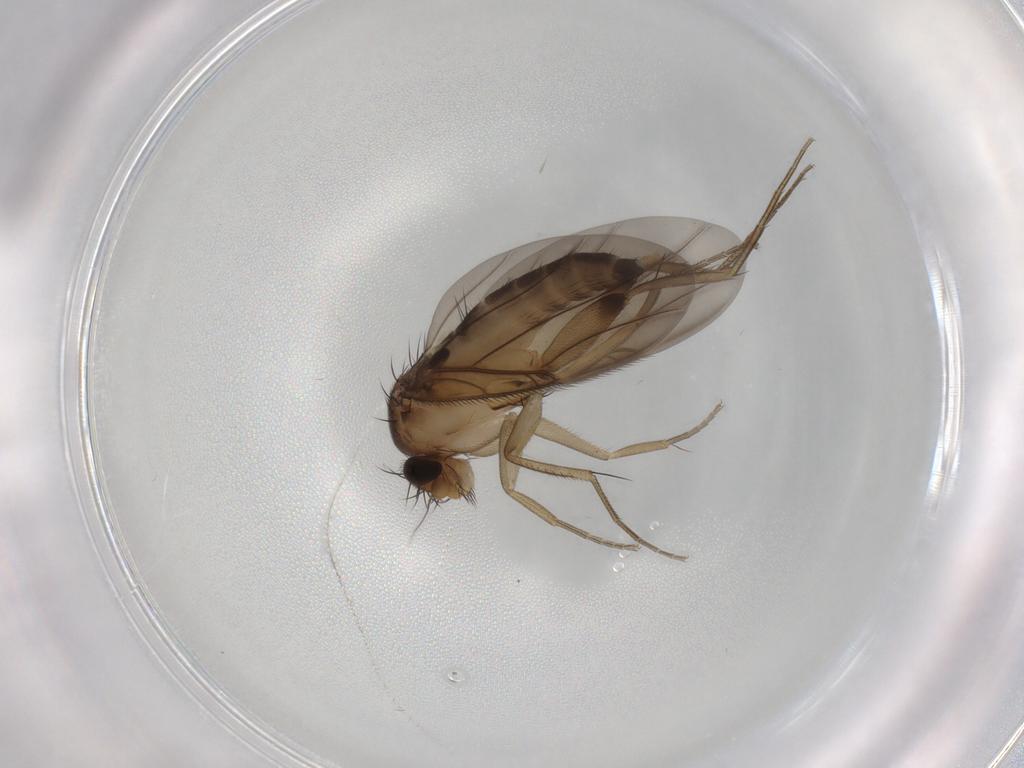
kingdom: Animalia
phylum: Arthropoda
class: Insecta
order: Diptera
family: Phoridae
